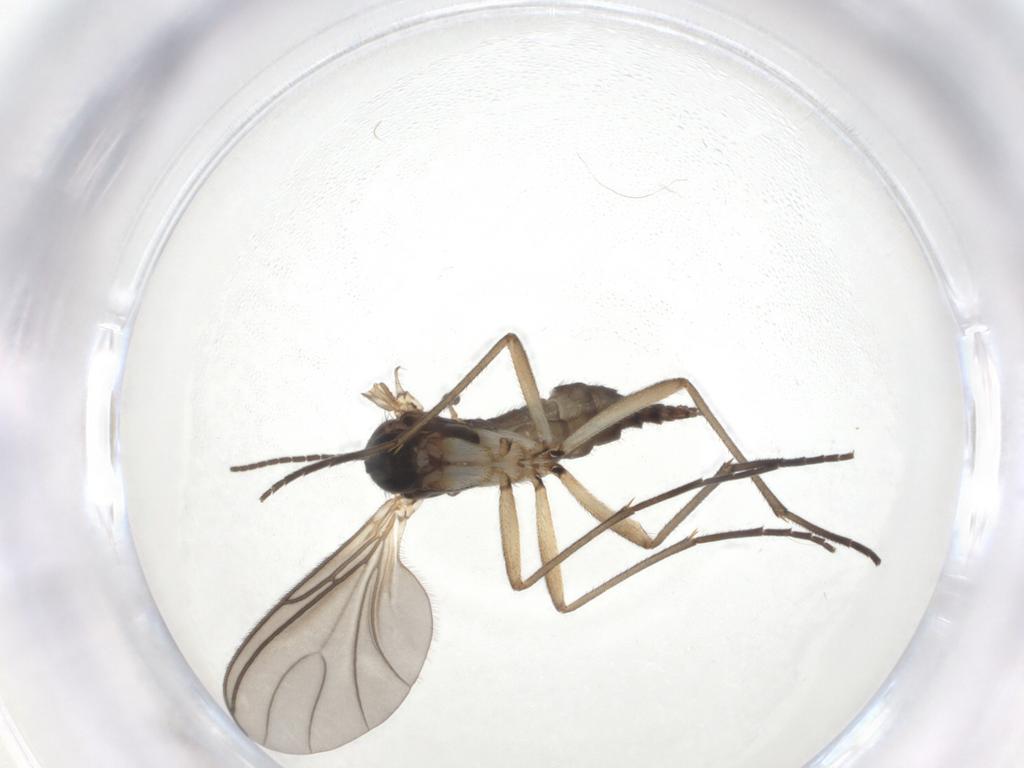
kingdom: Animalia
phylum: Arthropoda
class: Insecta
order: Diptera
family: Sciaridae
